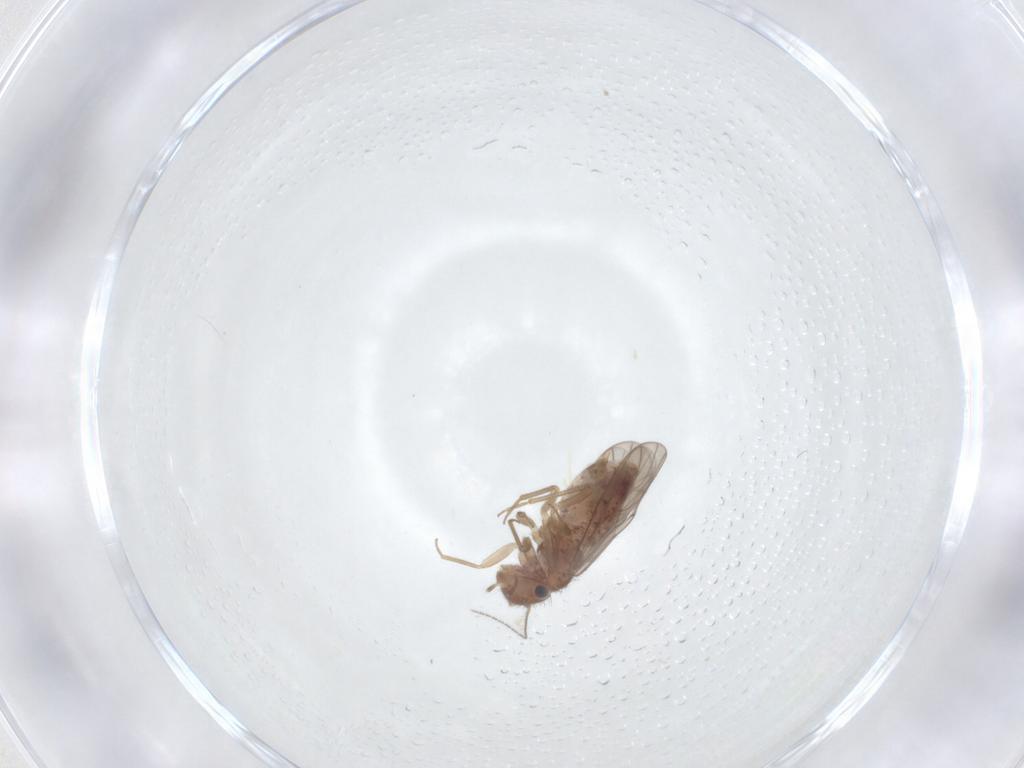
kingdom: Animalia
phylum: Arthropoda
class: Insecta
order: Psocodea
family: Ectopsocidae
